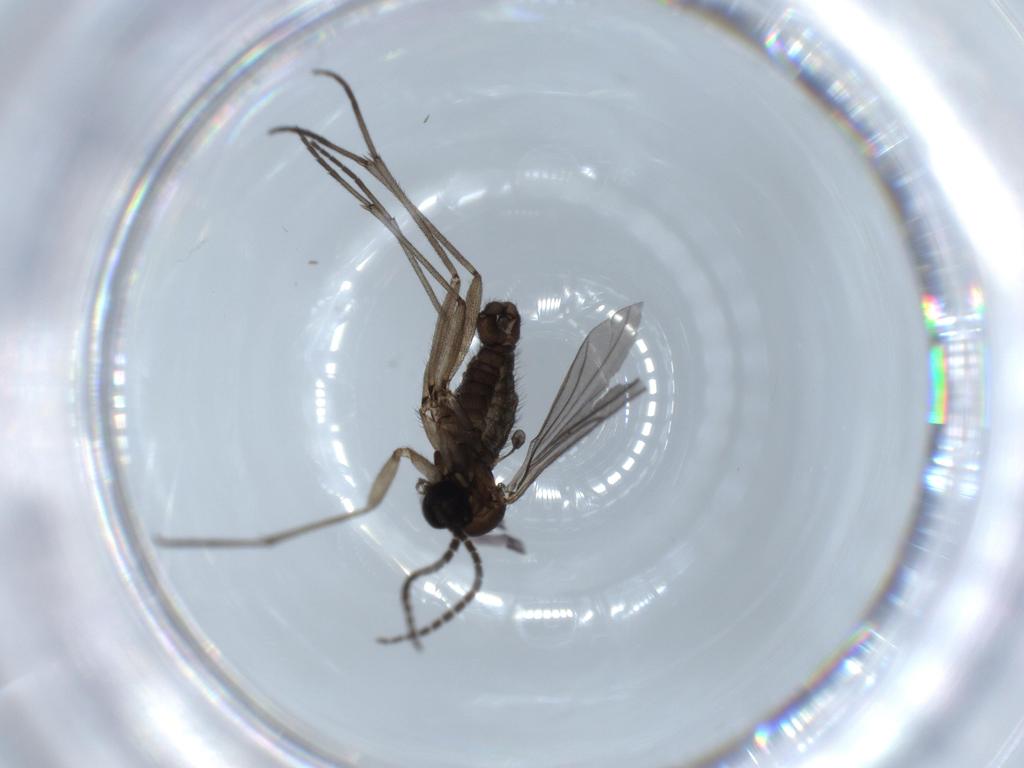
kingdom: Animalia
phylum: Arthropoda
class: Insecta
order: Diptera
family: Sciaridae
